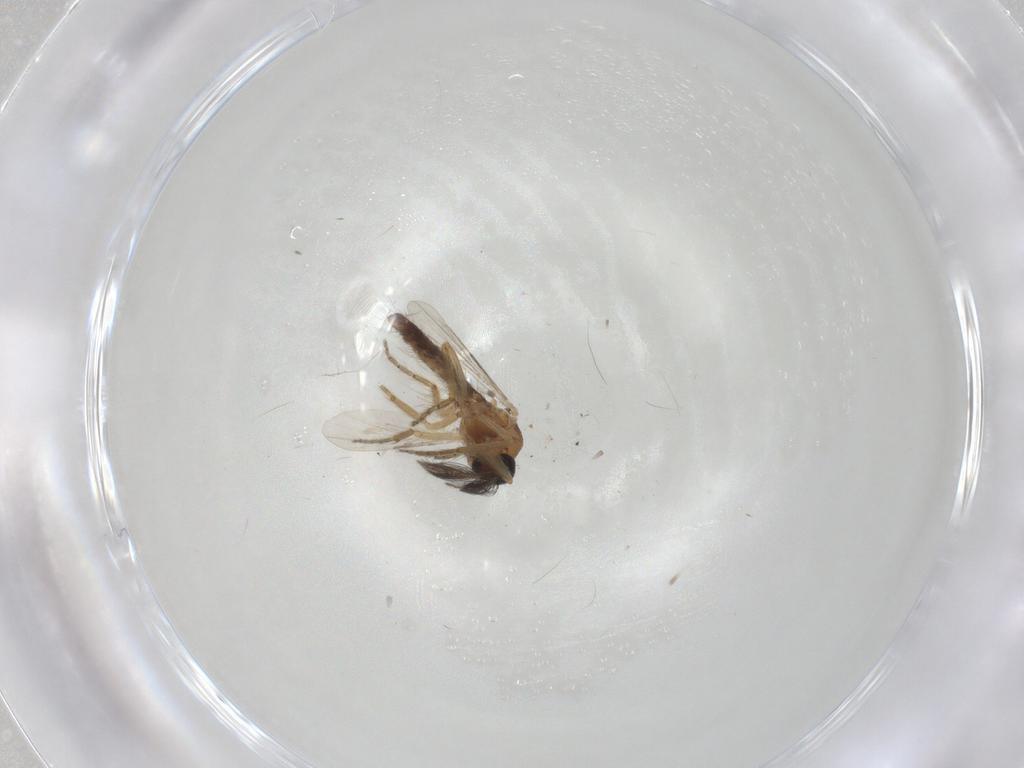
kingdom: Animalia
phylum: Arthropoda
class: Insecta
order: Diptera
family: Ceratopogonidae
